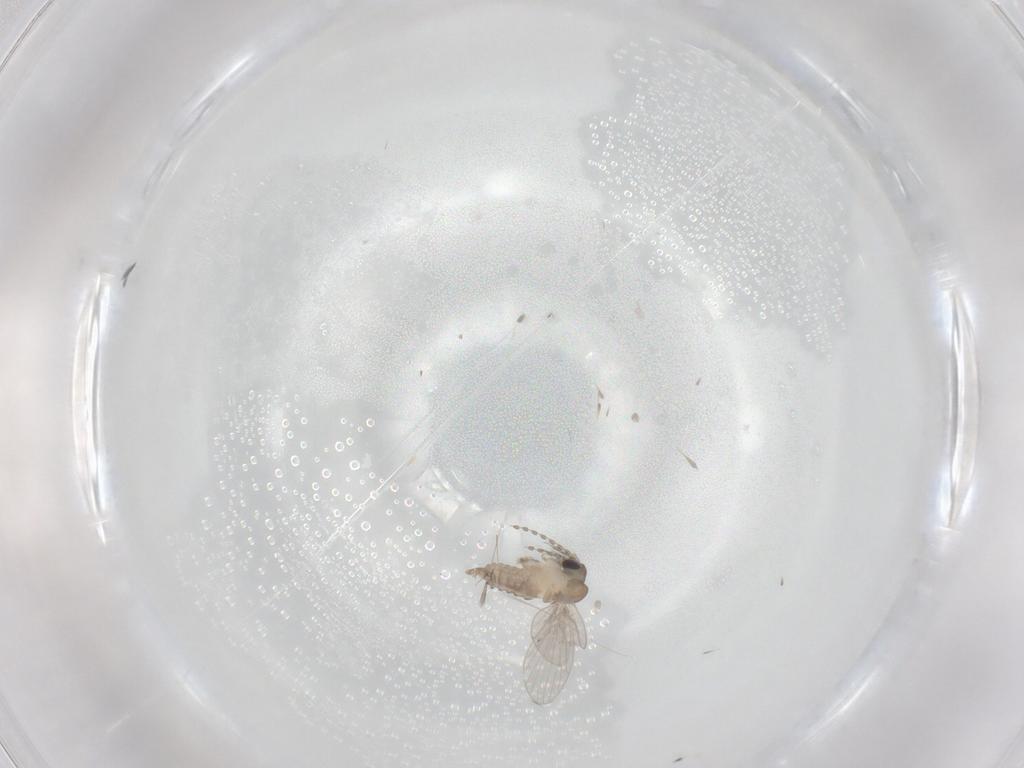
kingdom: Animalia
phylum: Arthropoda
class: Insecta
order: Diptera
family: Psychodidae
